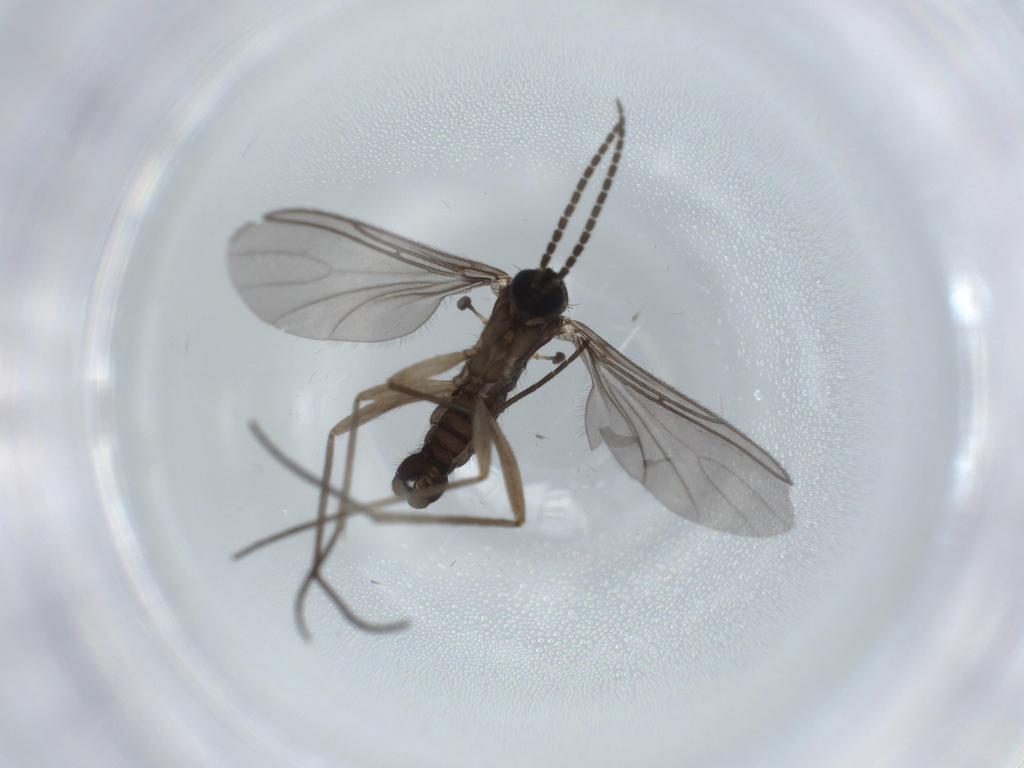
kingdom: Animalia
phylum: Arthropoda
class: Insecta
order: Diptera
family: Sciaridae
